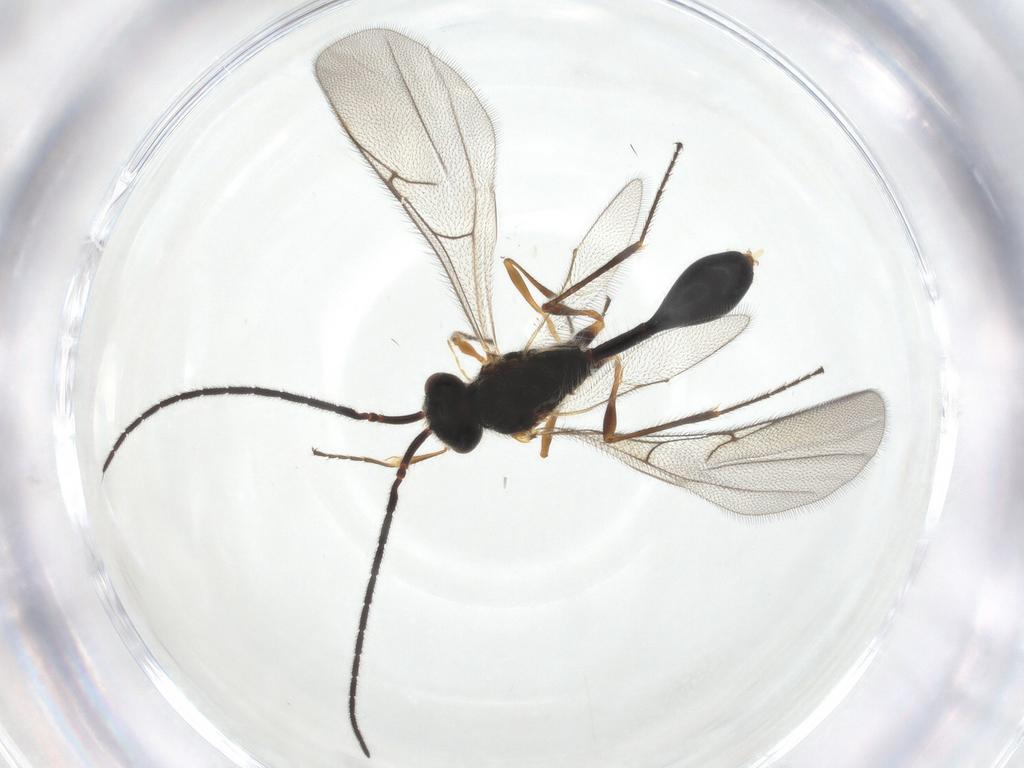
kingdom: Animalia
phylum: Arthropoda
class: Insecta
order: Hymenoptera
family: Diapriidae
